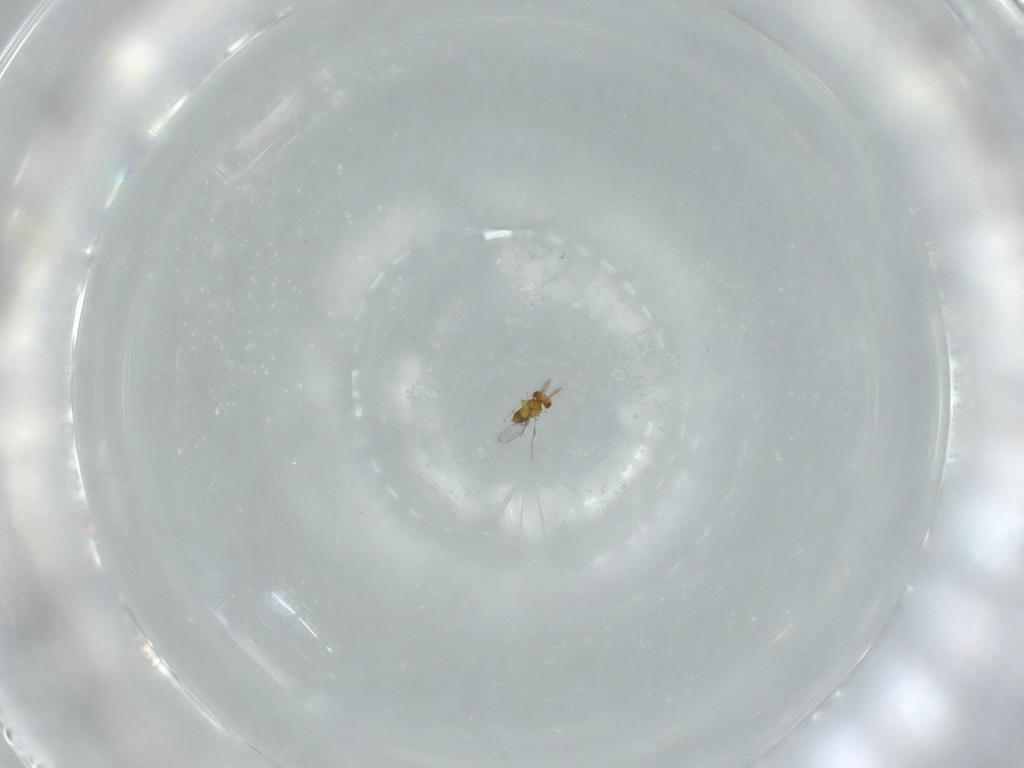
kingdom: Animalia
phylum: Arthropoda
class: Insecta
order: Hymenoptera
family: Trichogrammatidae
